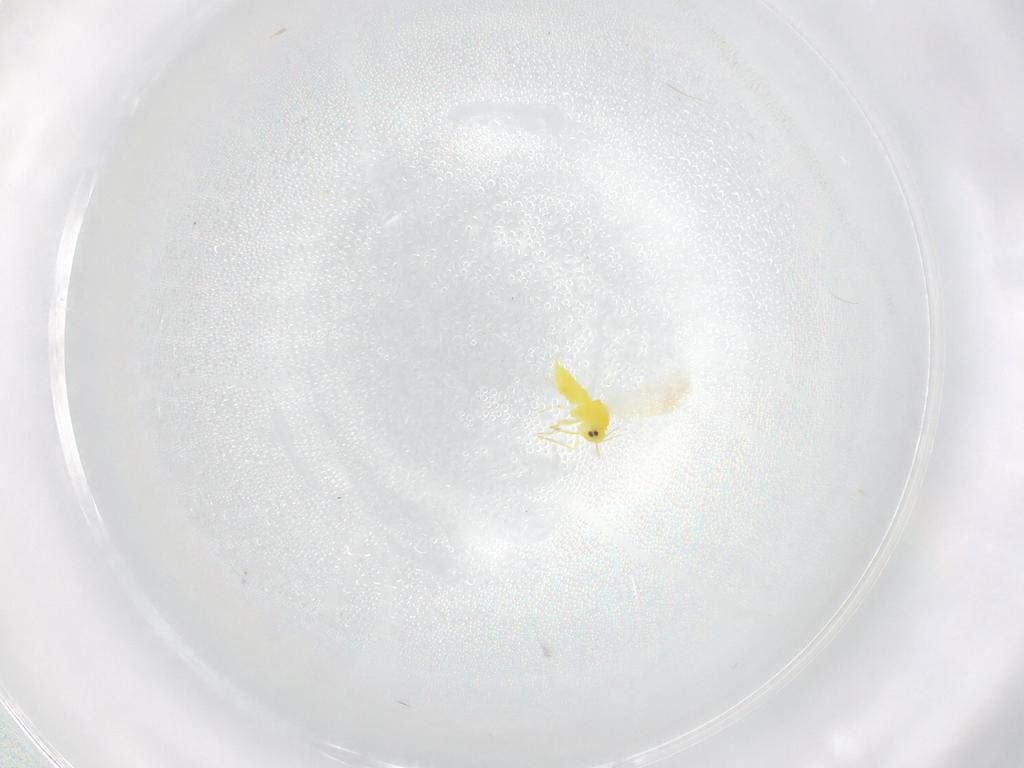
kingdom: Animalia
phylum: Arthropoda
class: Insecta
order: Hemiptera
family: Aleyrodidae
